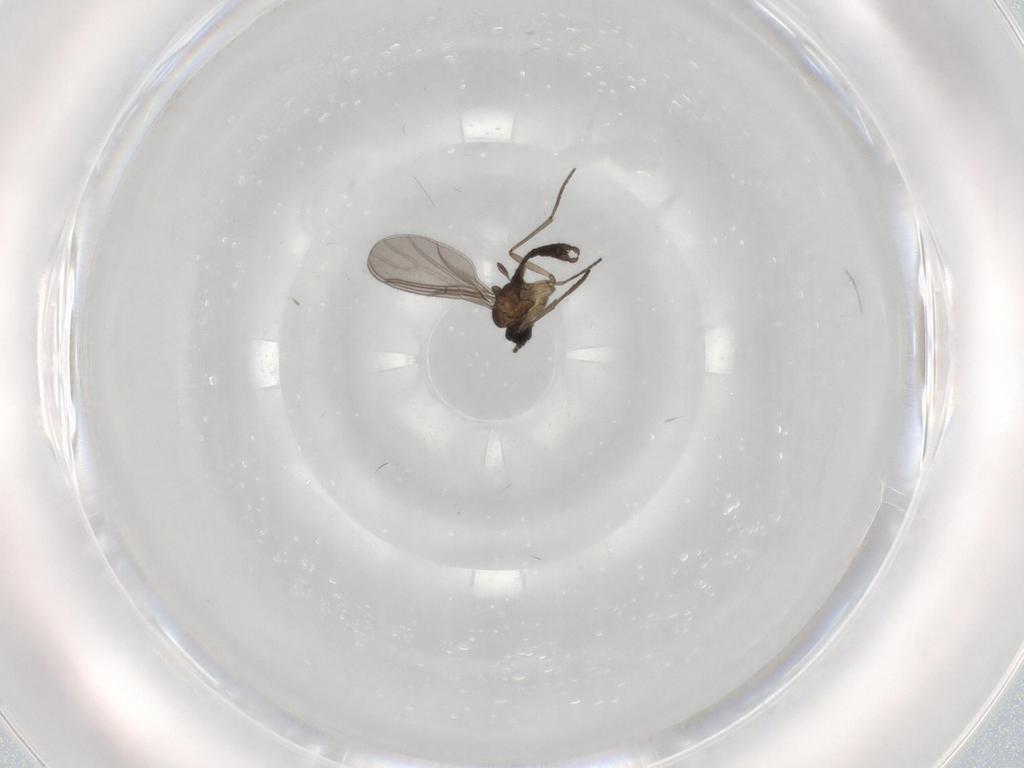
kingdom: Animalia
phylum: Arthropoda
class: Insecta
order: Diptera
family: Sciaridae
